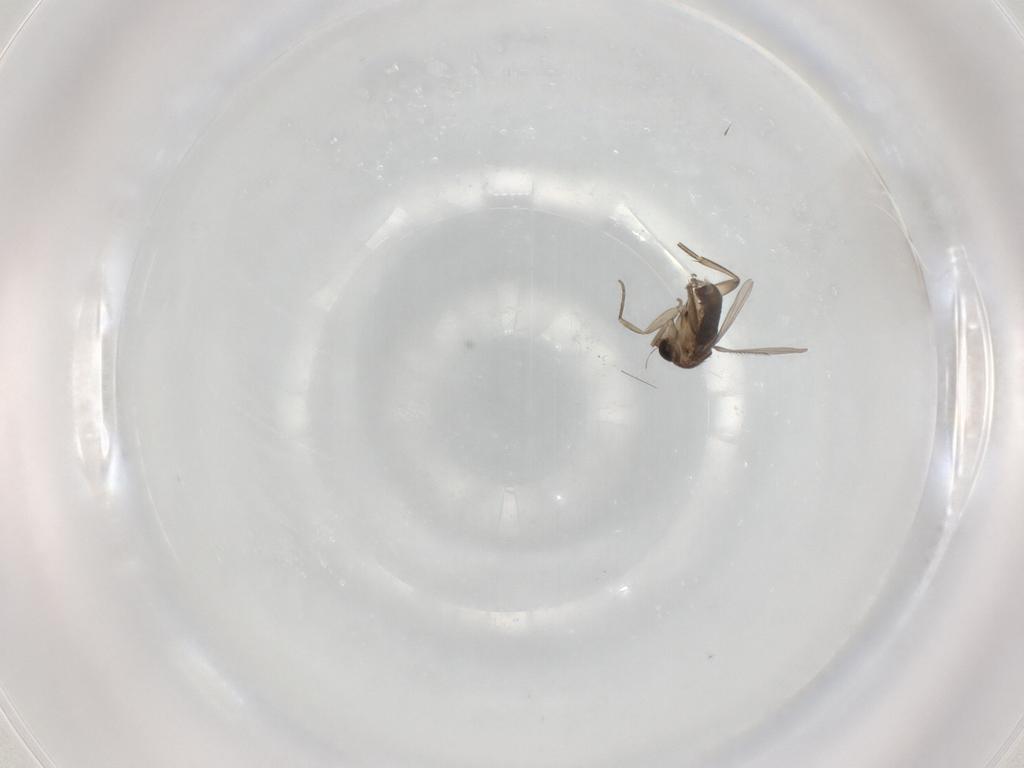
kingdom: Animalia
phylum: Arthropoda
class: Insecta
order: Diptera
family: Phoridae
